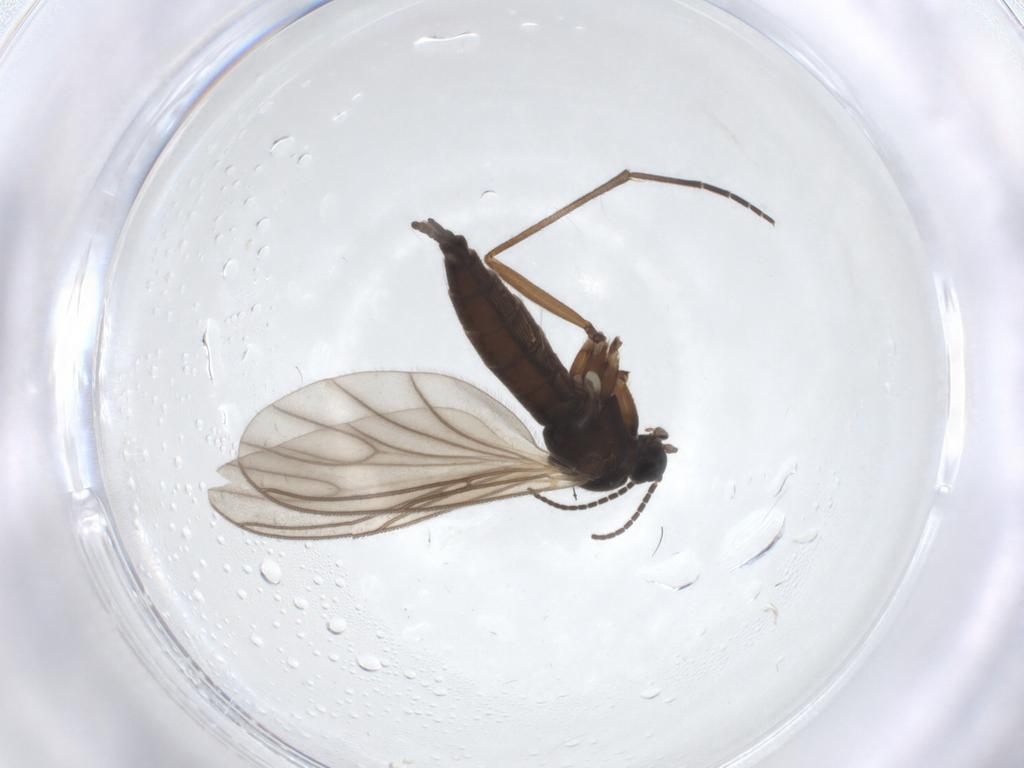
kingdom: Animalia
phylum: Arthropoda
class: Insecta
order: Diptera
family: Sciaridae
